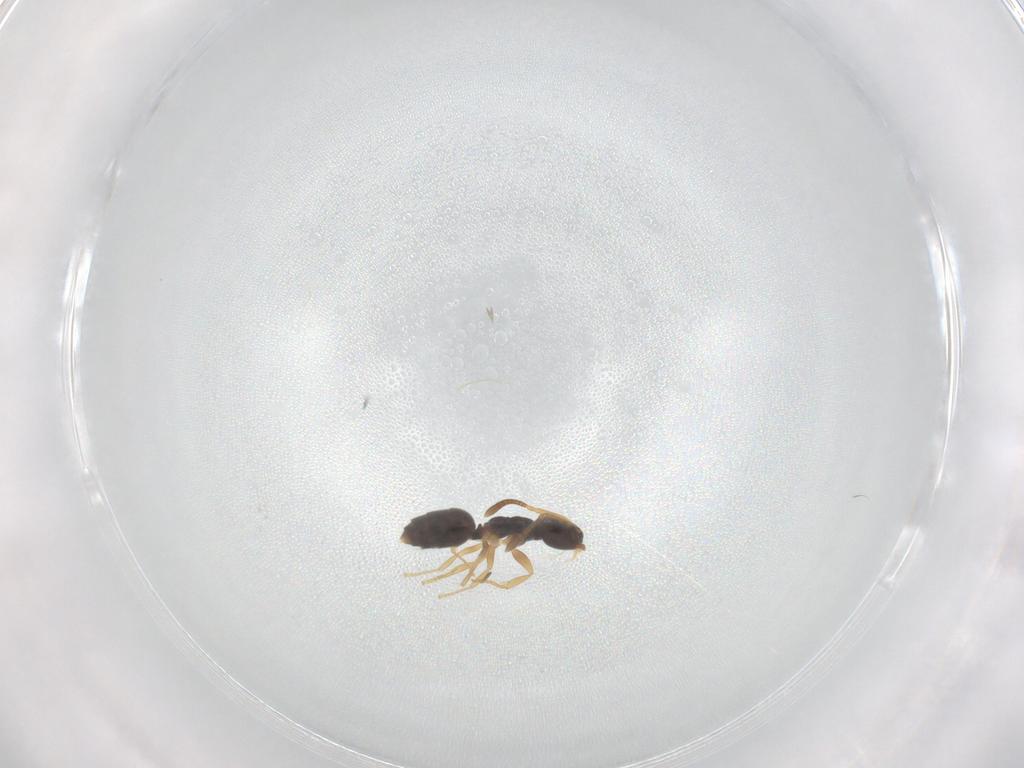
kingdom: Animalia
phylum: Arthropoda
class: Insecta
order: Hymenoptera
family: Formicidae
